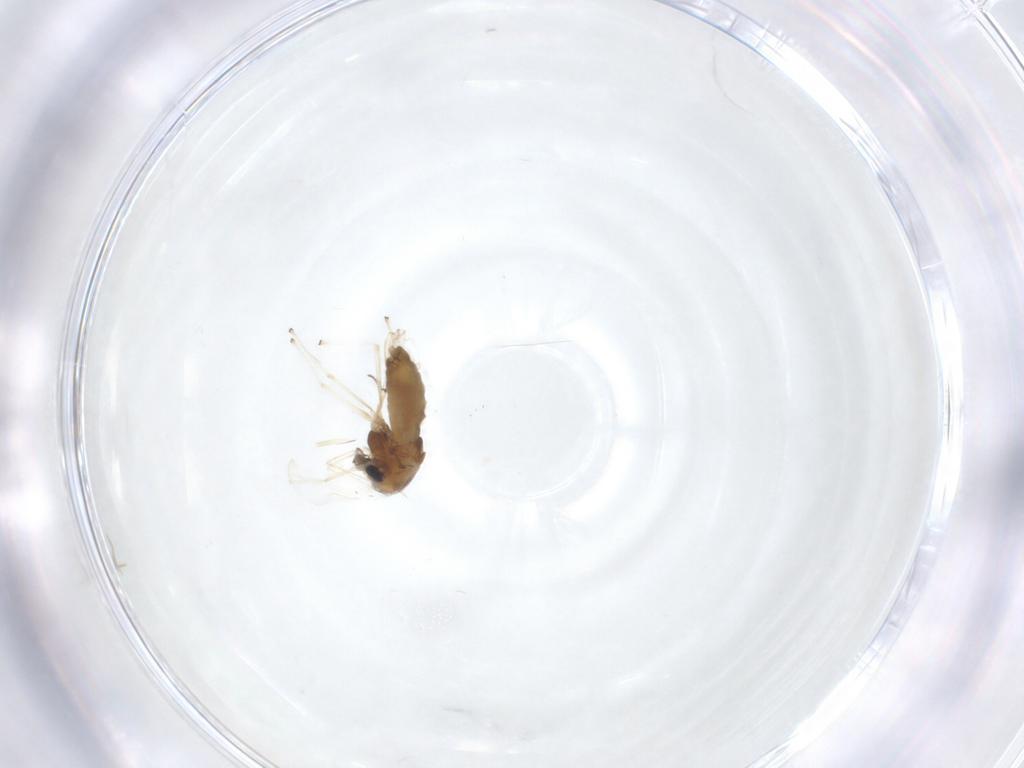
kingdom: Animalia
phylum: Arthropoda
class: Insecta
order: Diptera
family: Chironomidae
